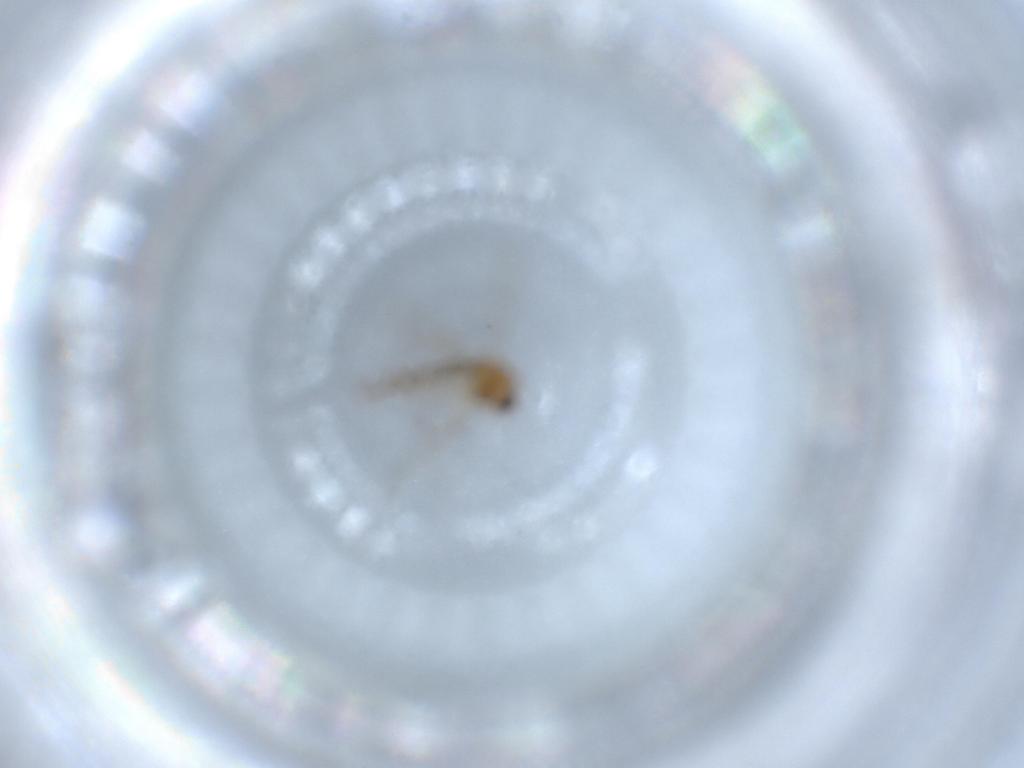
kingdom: Animalia
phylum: Arthropoda
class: Insecta
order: Diptera
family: Chironomidae
